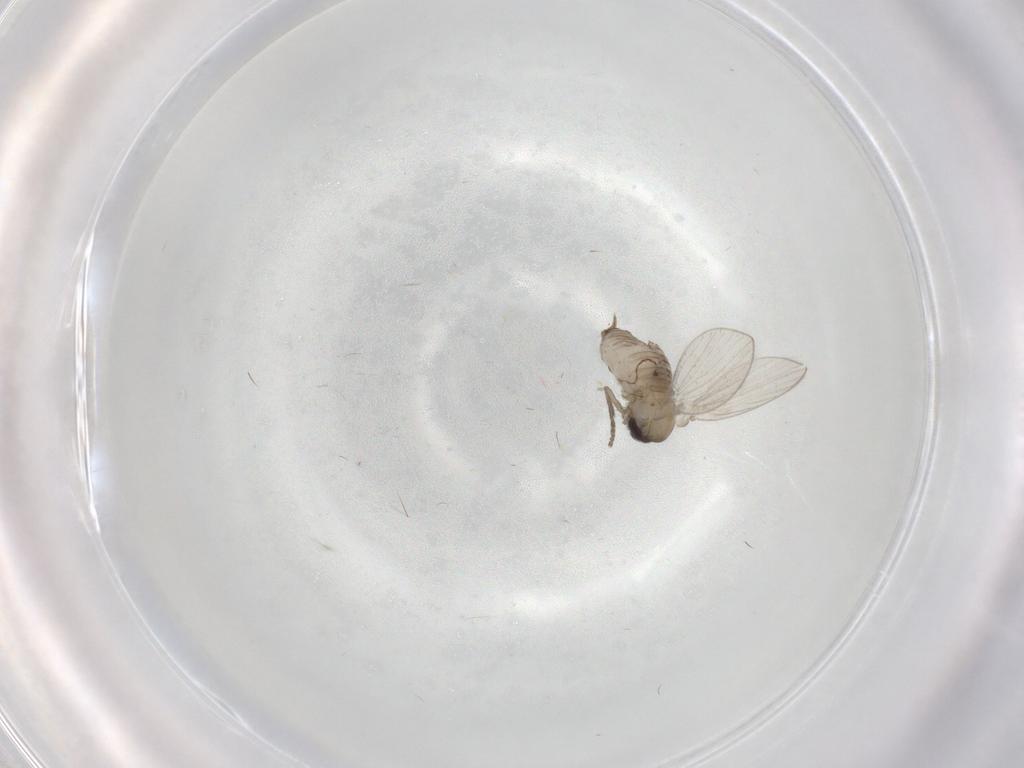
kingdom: Animalia
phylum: Arthropoda
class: Insecta
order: Diptera
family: Psychodidae
